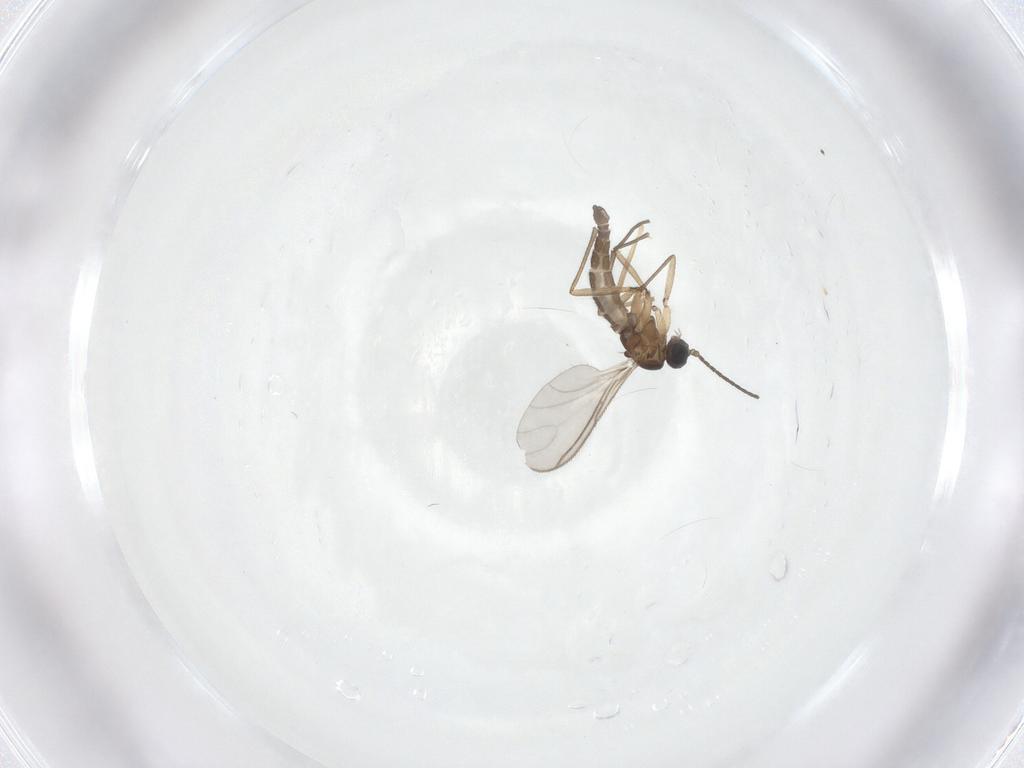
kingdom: Animalia
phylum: Arthropoda
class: Insecta
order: Diptera
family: Sciaridae
